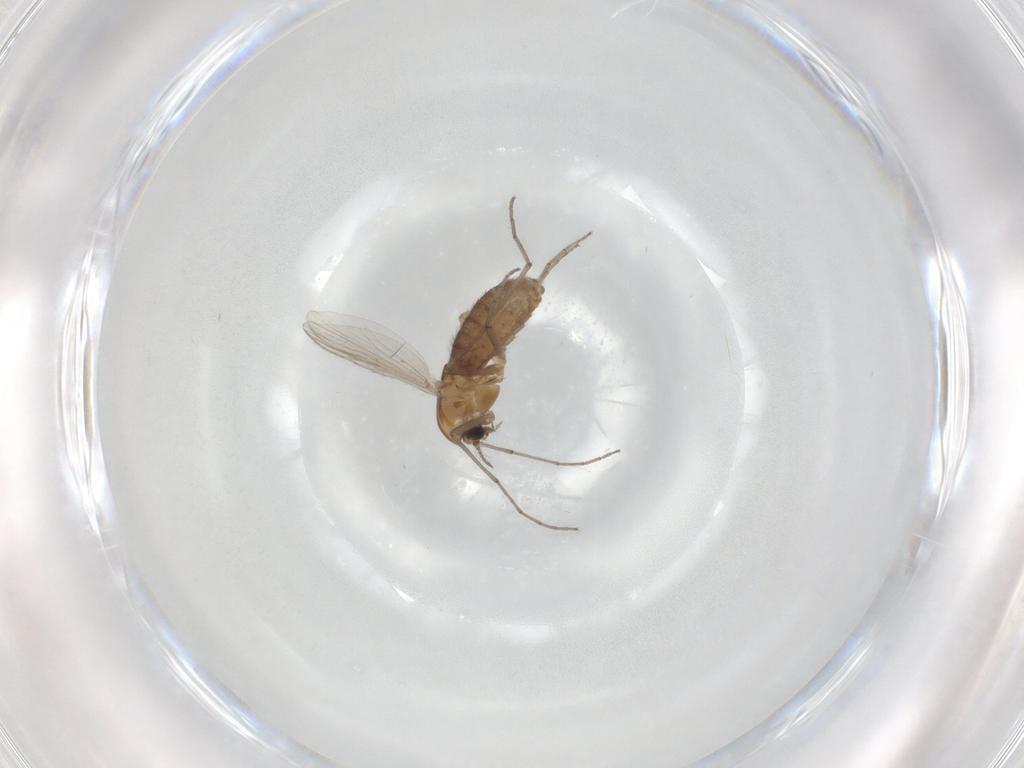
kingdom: Animalia
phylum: Arthropoda
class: Insecta
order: Diptera
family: Chironomidae
